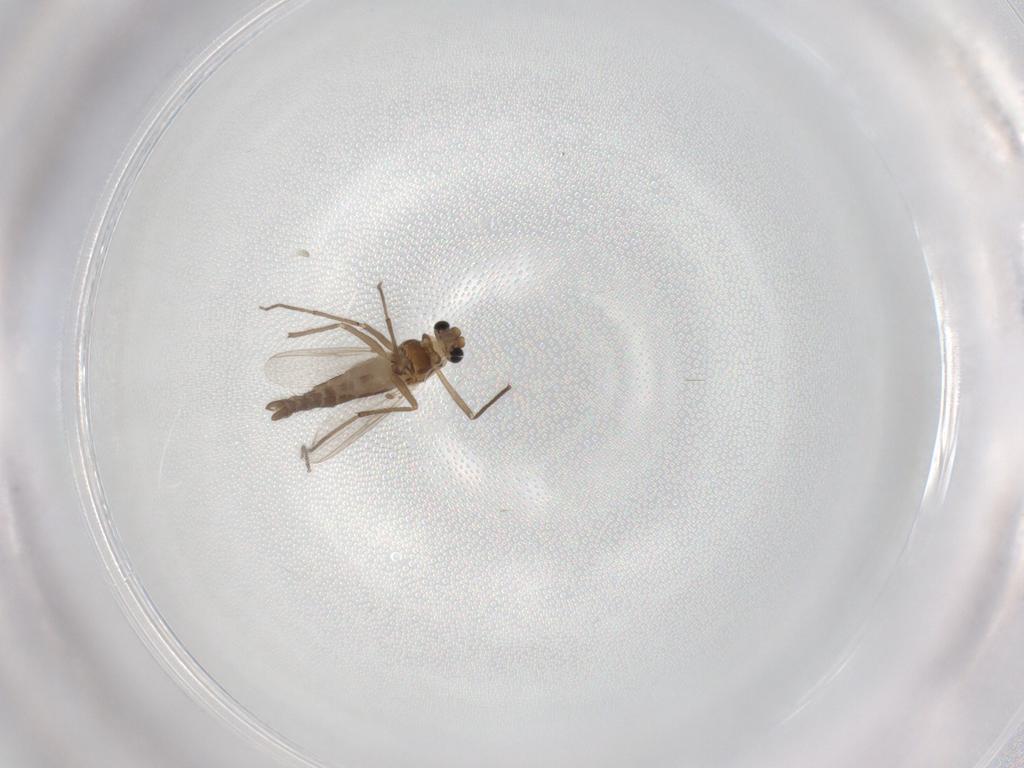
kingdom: Animalia
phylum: Arthropoda
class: Insecta
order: Diptera
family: Chironomidae
